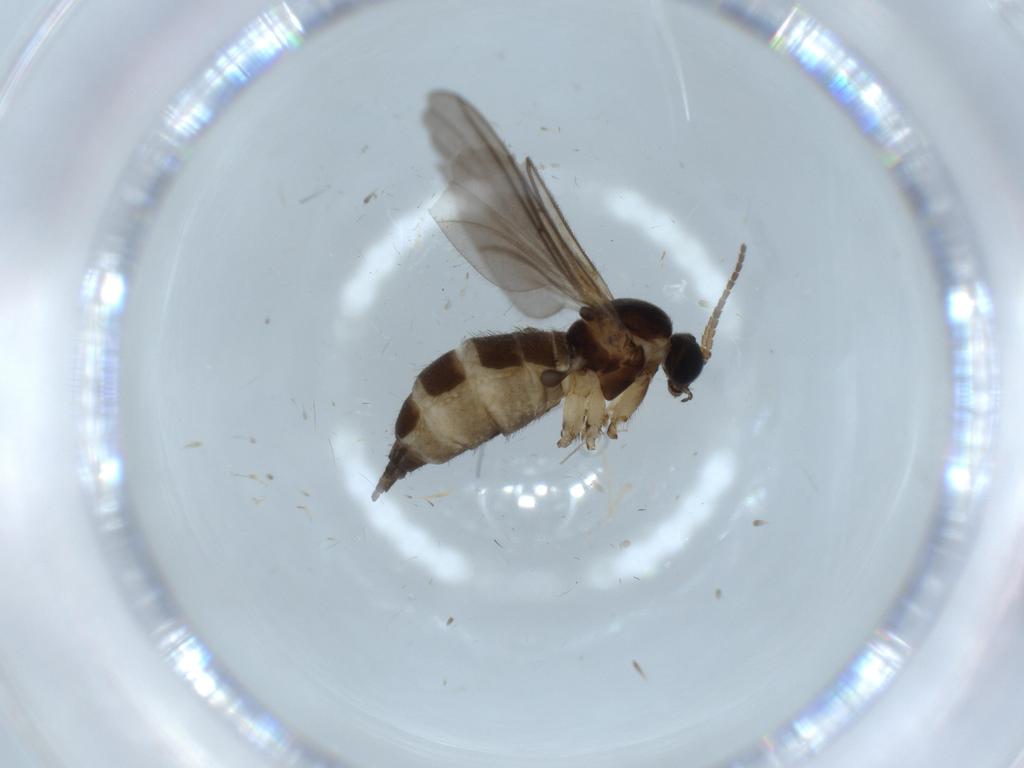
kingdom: Animalia
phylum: Arthropoda
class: Insecta
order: Diptera
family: Sciaridae
